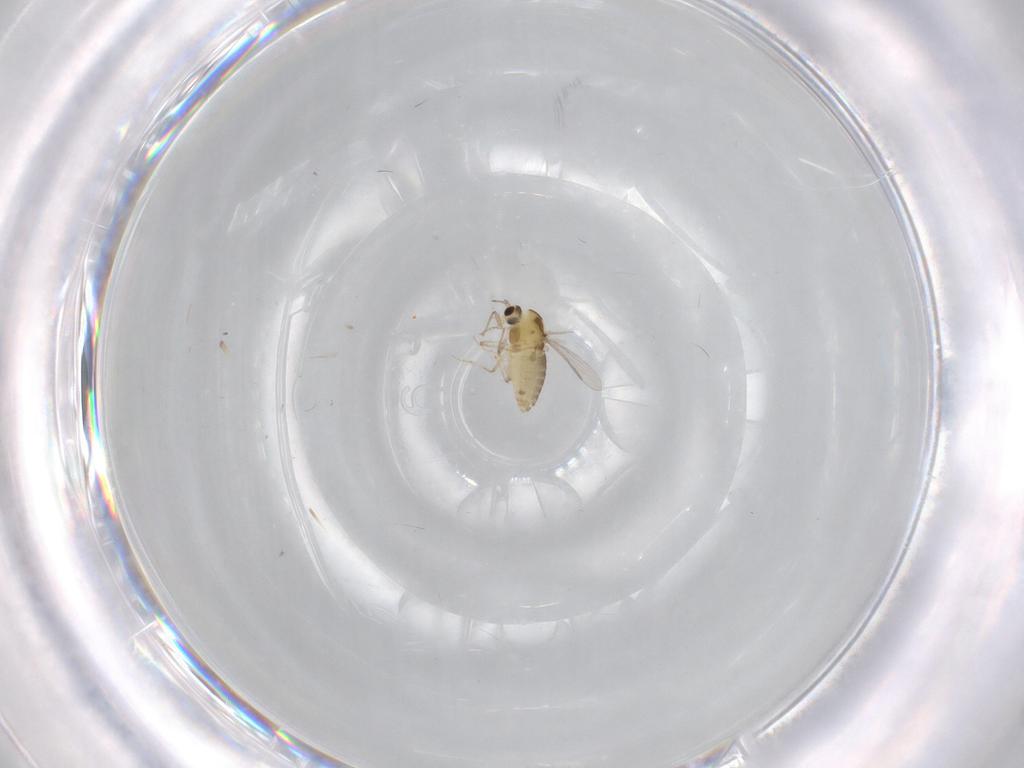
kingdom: Animalia
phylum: Arthropoda
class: Insecta
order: Diptera
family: Chironomidae
